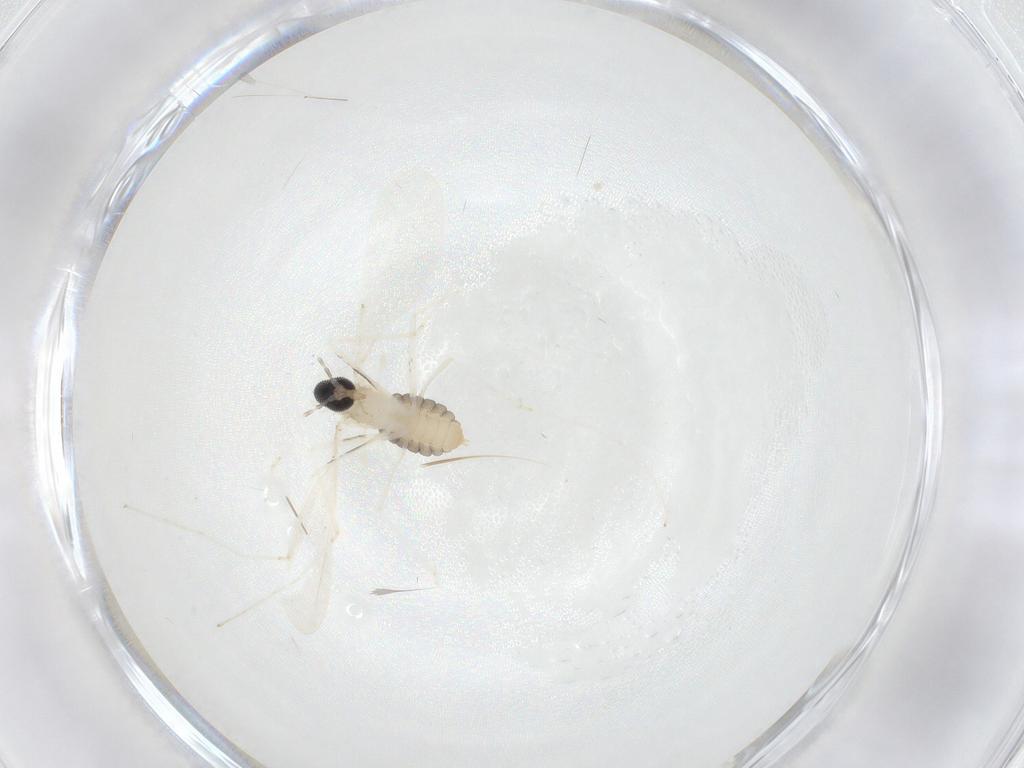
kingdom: Animalia
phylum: Arthropoda
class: Insecta
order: Diptera
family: Cecidomyiidae
